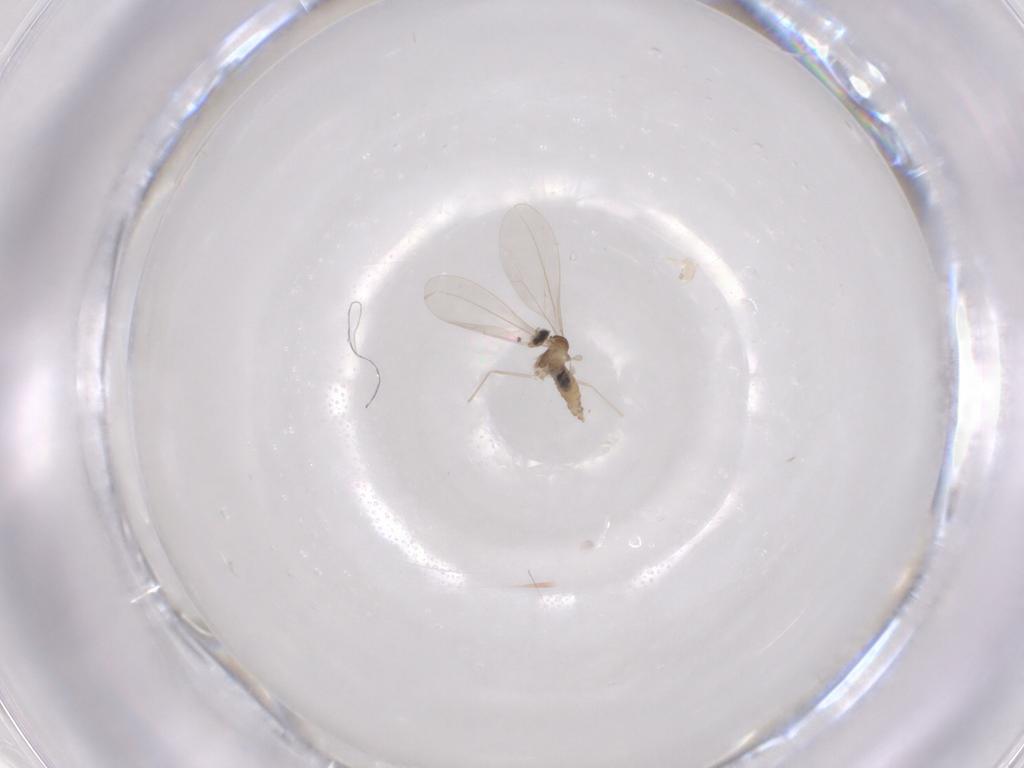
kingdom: Animalia
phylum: Arthropoda
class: Insecta
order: Diptera
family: Cecidomyiidae
